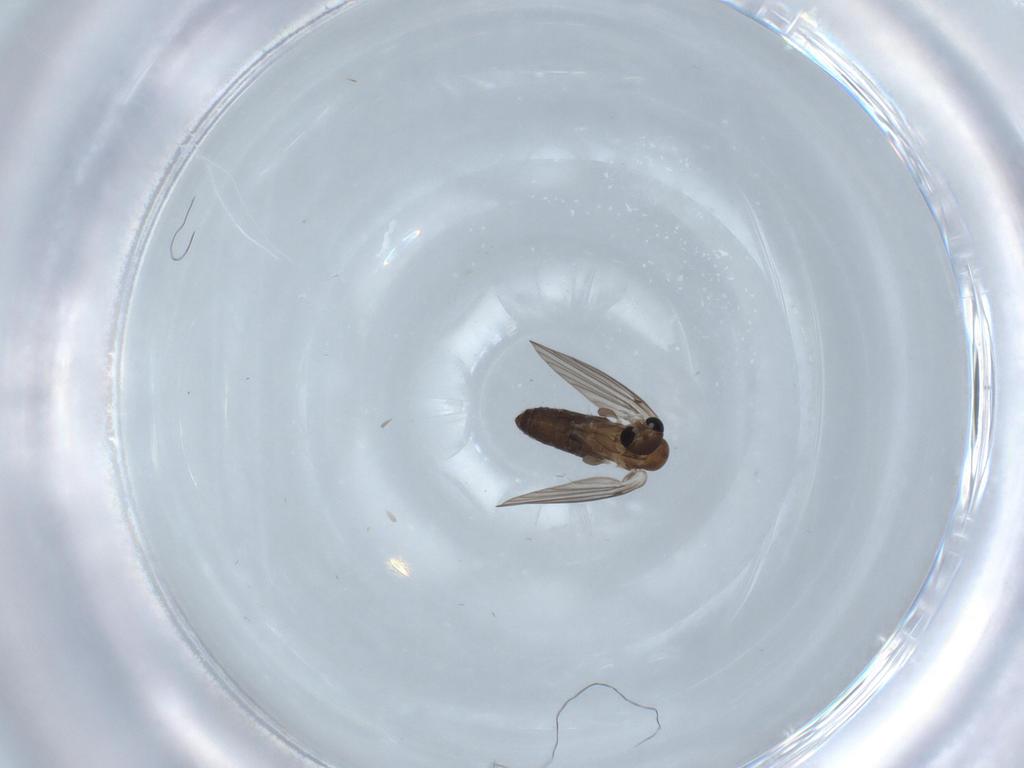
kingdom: Animalia
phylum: Arthropoda
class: Insecta
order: Diptera
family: Psychodidae
